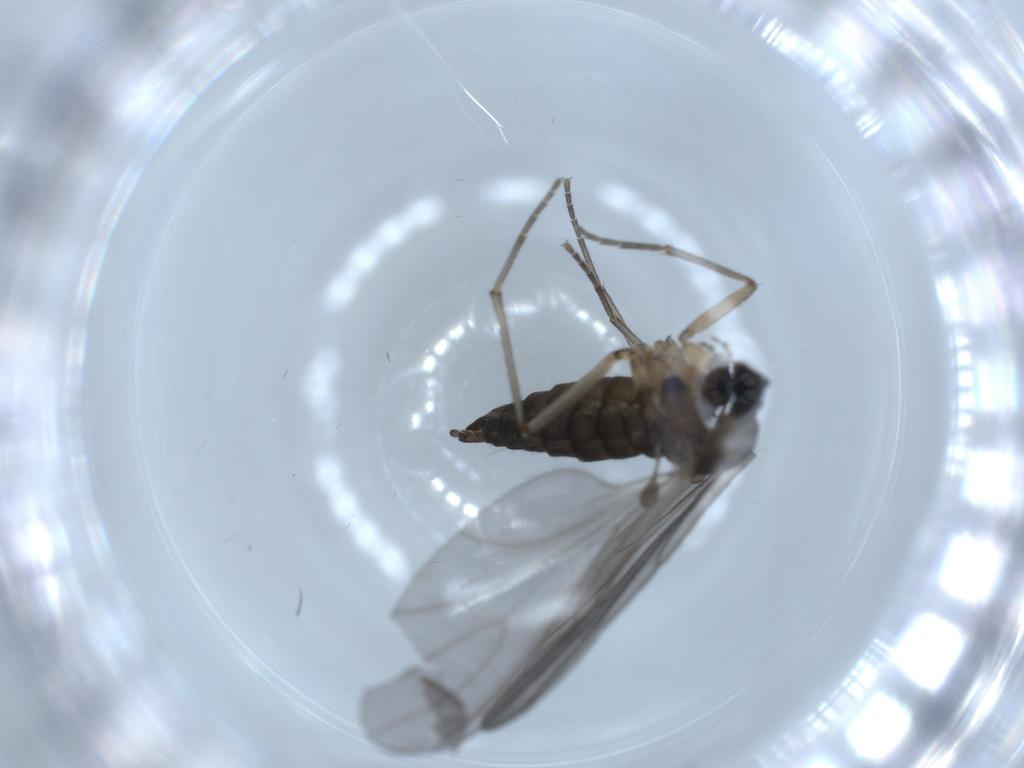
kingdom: Animalia
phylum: Arthropoda
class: Insecta
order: Diptera
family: Sciaridae
